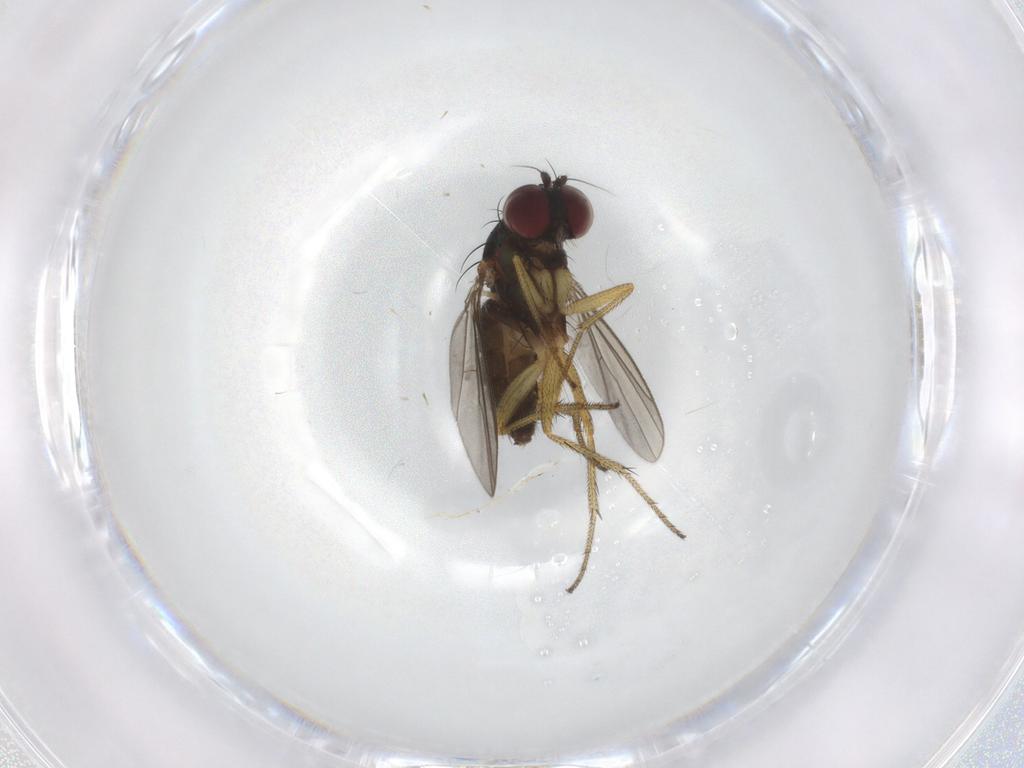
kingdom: Animalia
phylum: Arthropoda
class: Insecta
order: Diptera
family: Dolichopodidae
